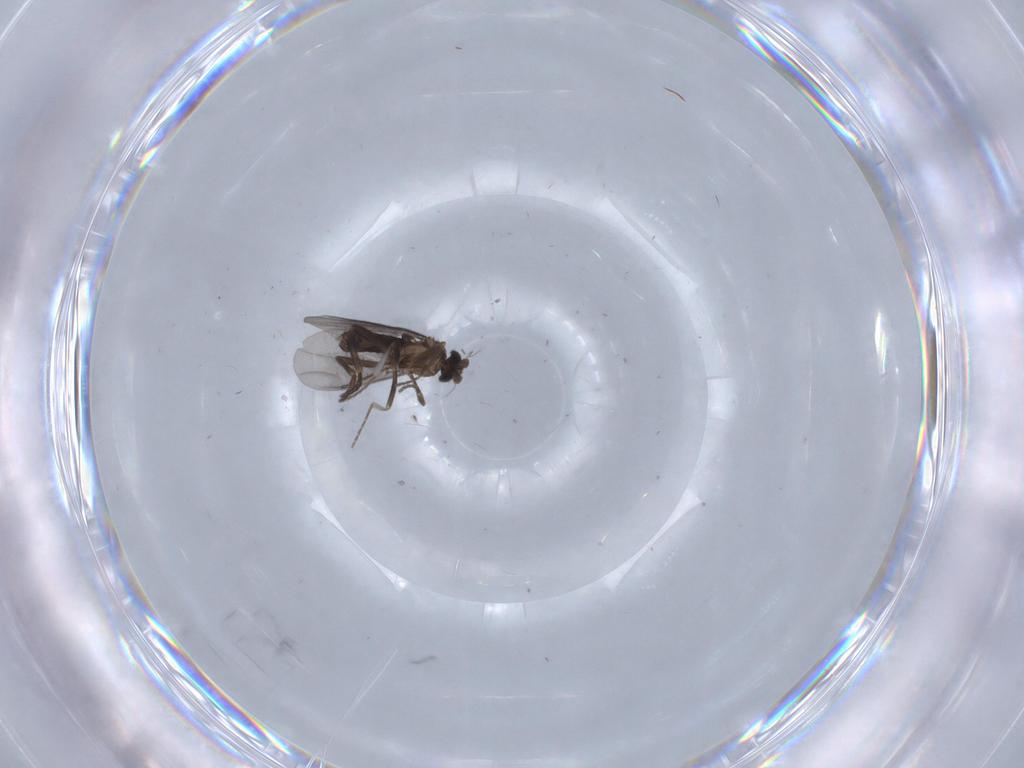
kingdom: Animalia
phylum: Arthropoda
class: Insecta
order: Diptera
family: Phoridae
